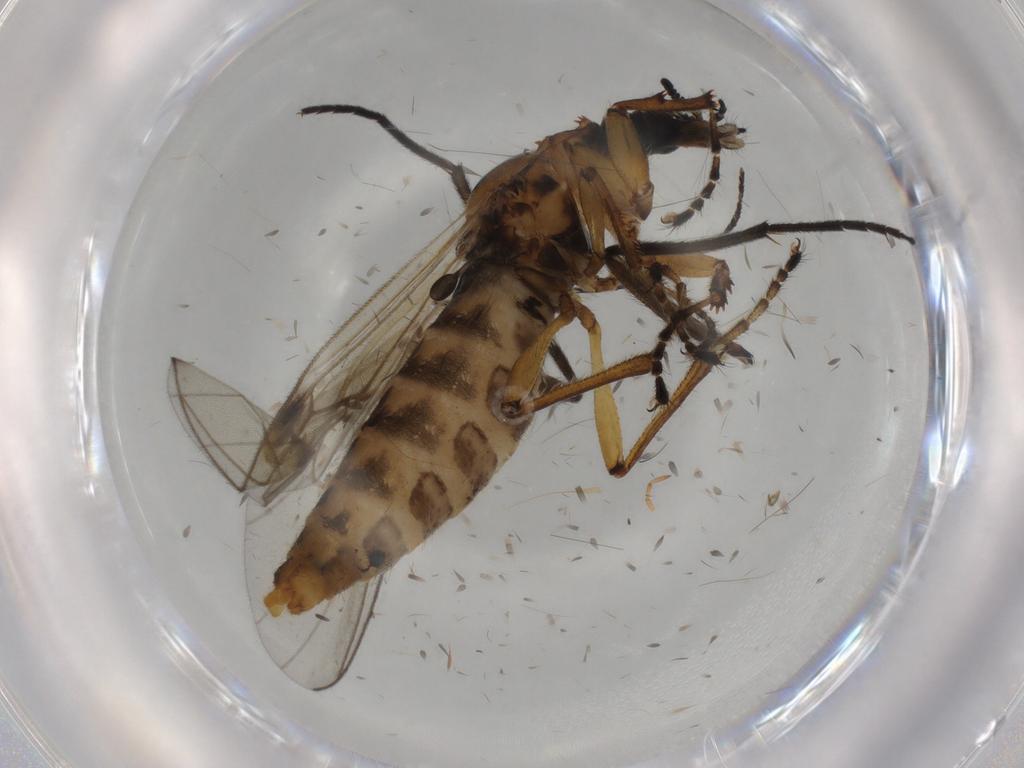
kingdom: Animalia
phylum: Arthropoda
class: Insecta
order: Diptera
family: Bibionidae
